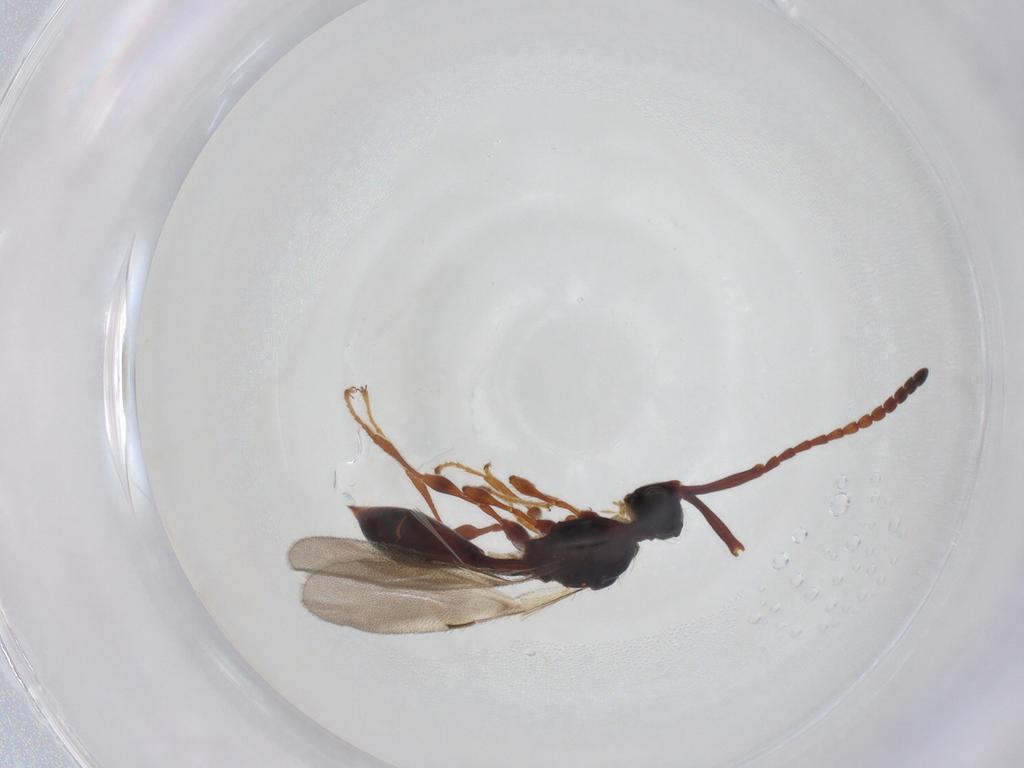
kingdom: Animalia
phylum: Arthropoda
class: Insecta
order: Hymenoptera
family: Diapriidae
